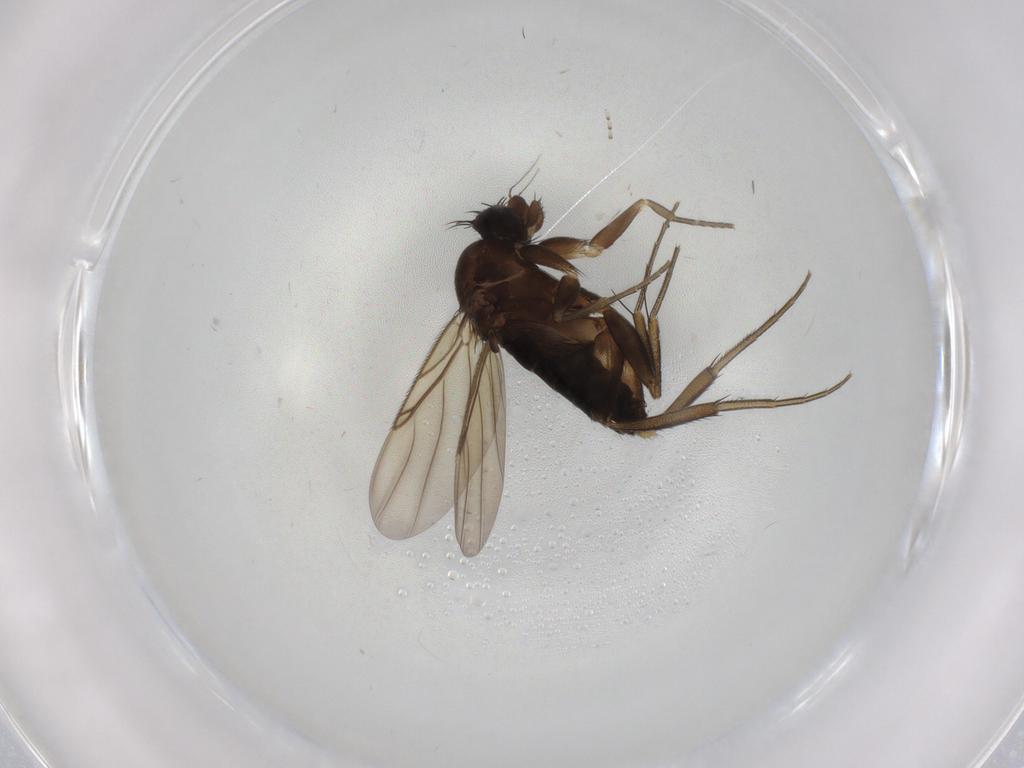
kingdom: Animalia
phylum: Arthropoda
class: Insecta
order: Diptera
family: Phoridae
